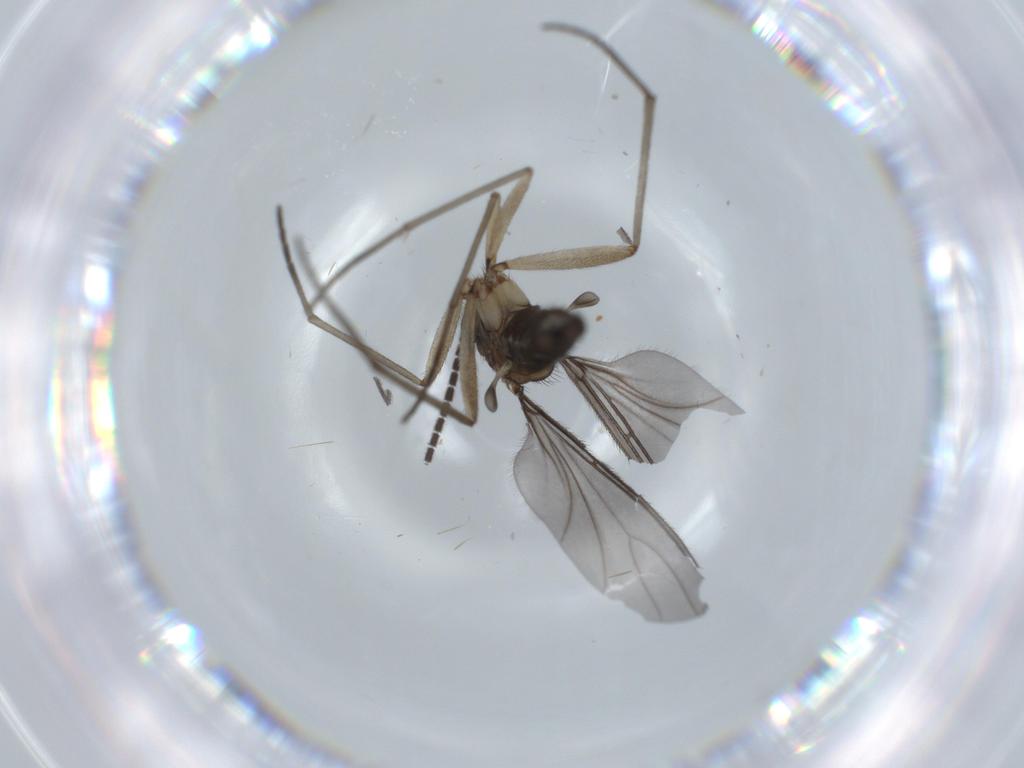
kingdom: Animalia
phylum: Arthropoda
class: Insecta
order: Diptera
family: Sciaridae
